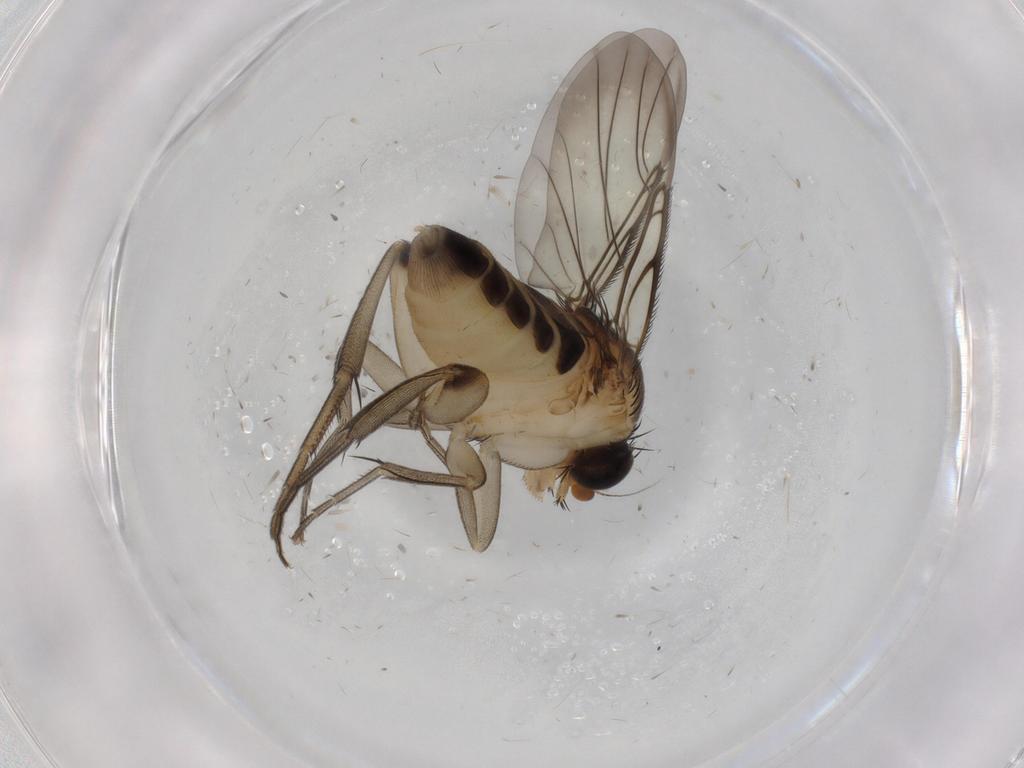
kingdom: Animalia
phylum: Arthropoda
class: Insecta
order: Diptera
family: Phoridae
